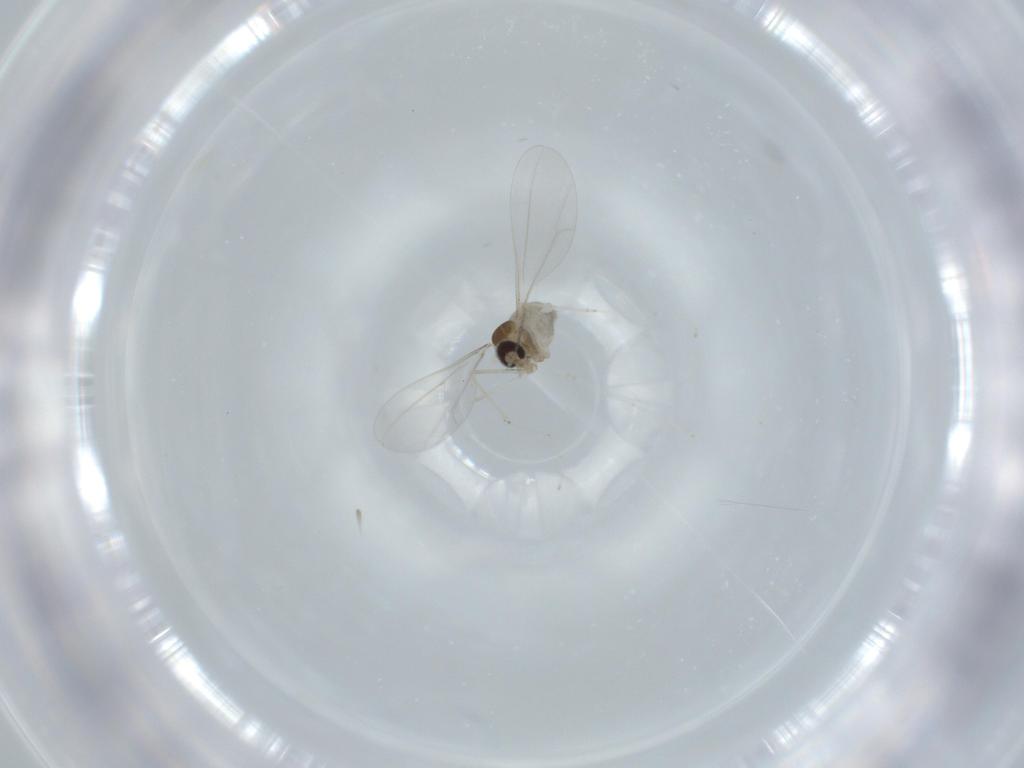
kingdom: Animalia
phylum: Arthropoda
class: Insecta
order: Diptera
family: Cecidomyiidae
